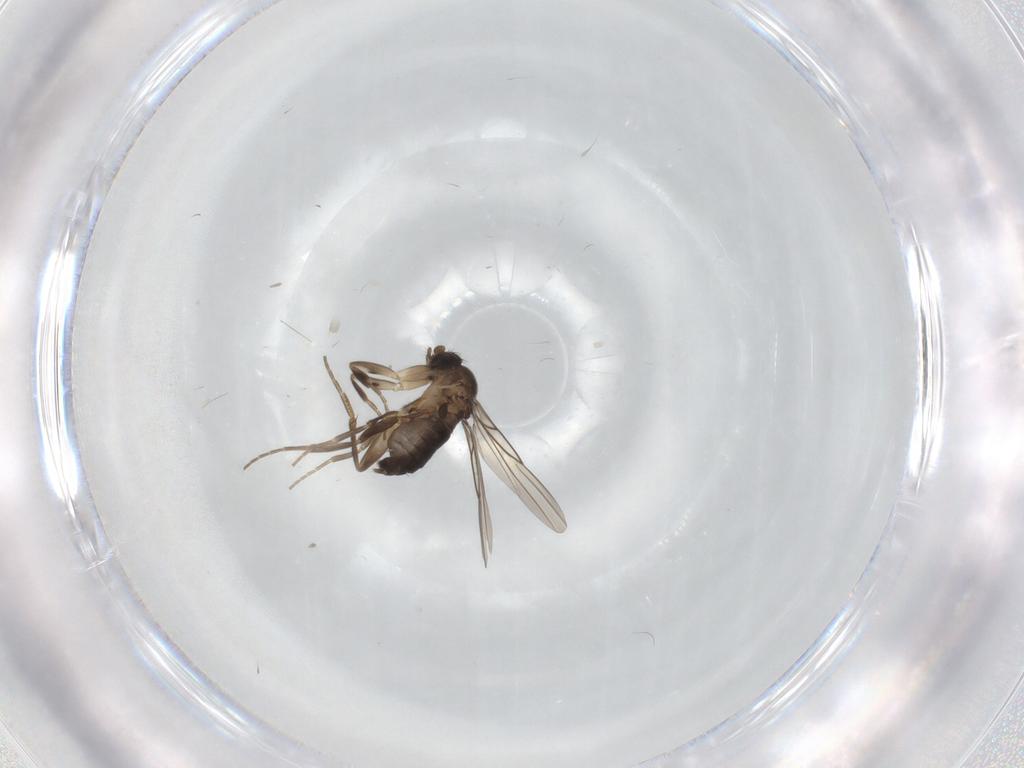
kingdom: Animalia
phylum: Arthropoda
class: Insecta
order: Diptera
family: Phoridae
